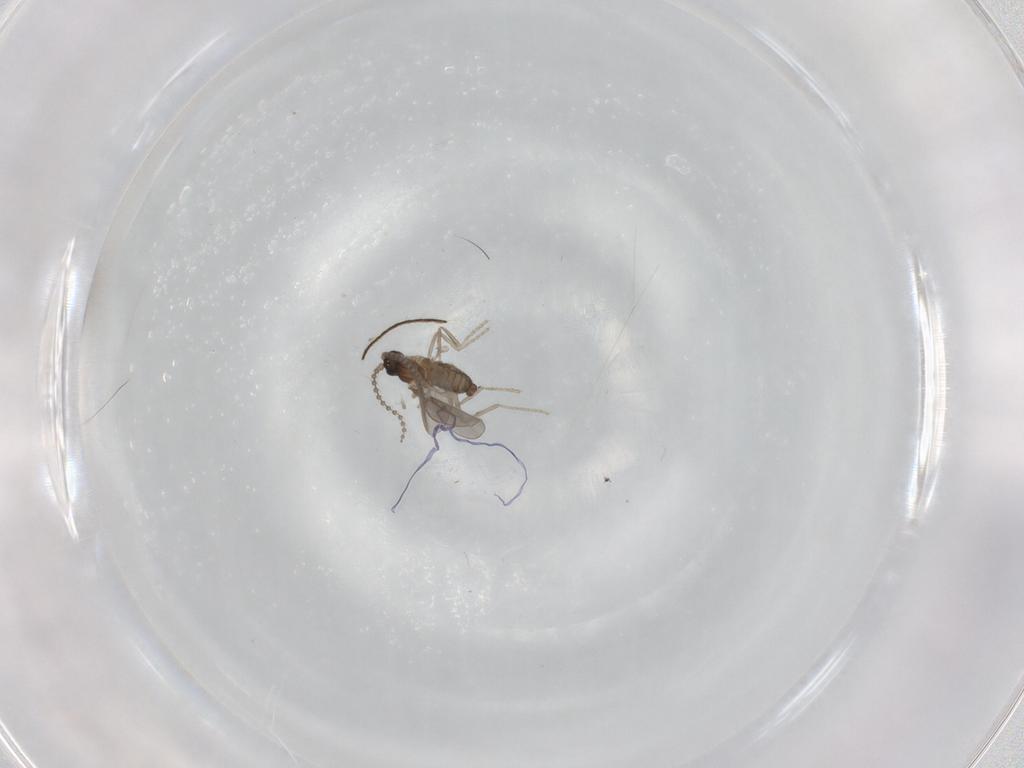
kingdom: Animalia
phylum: Arthropoda
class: Insecta
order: Diptera
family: Cecidomyiidae
